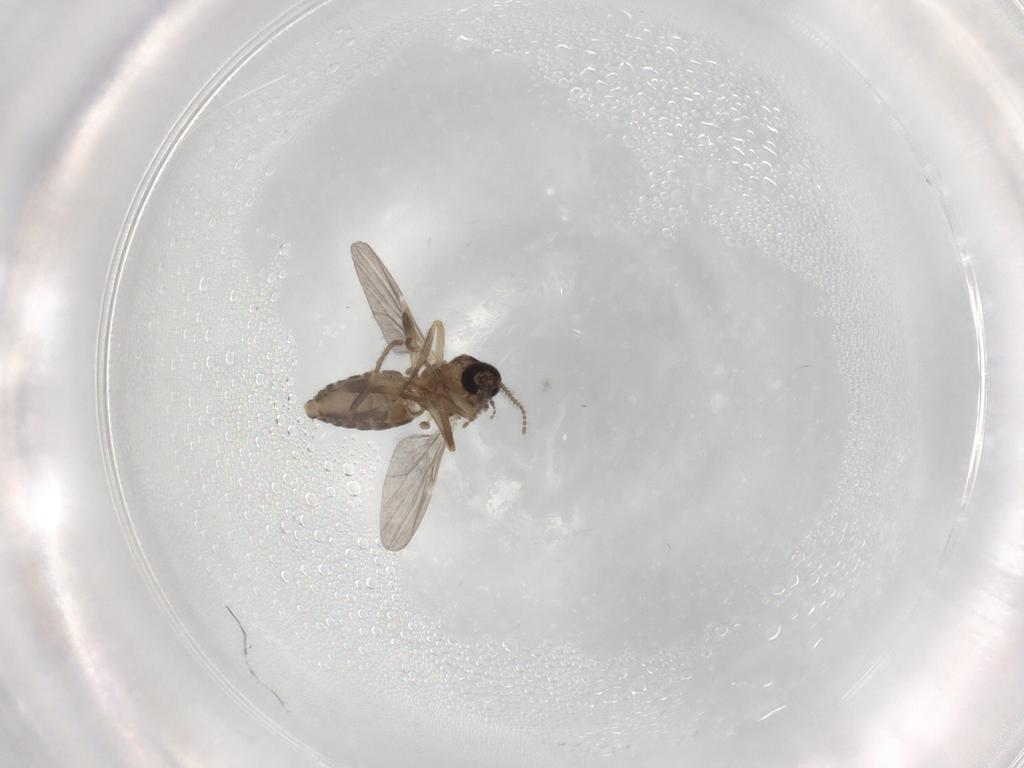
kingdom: Animalia
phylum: Arthropoda
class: Insecta
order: Diptera
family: Ceratopogonidae
